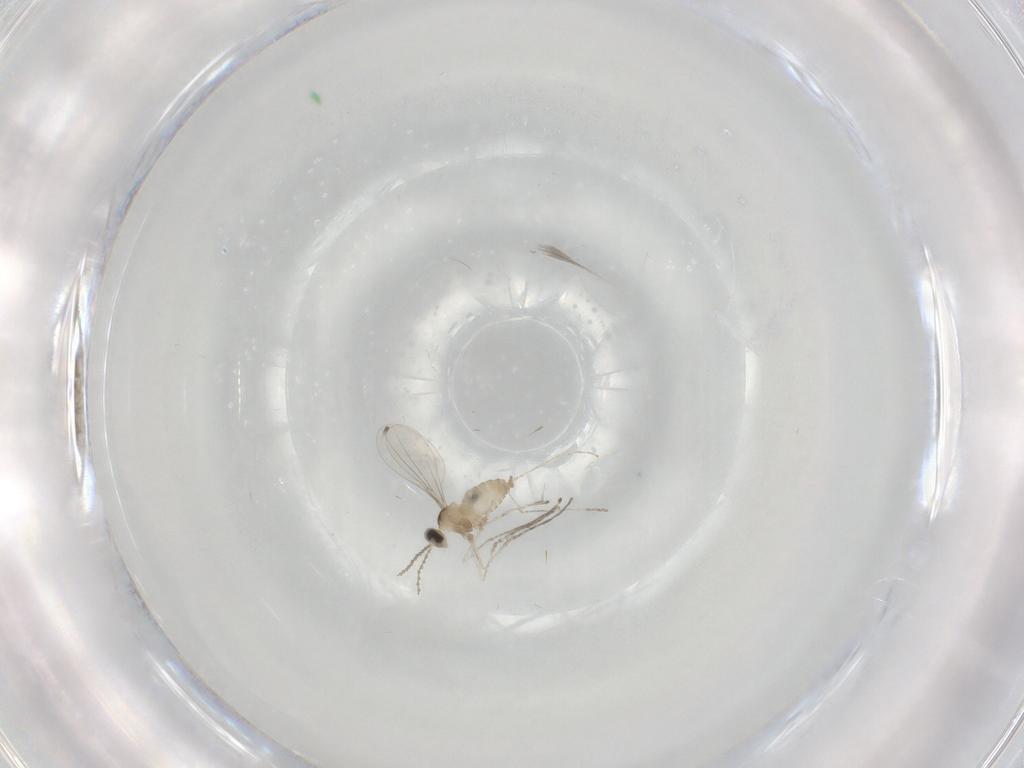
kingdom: Animalia
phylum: Arthropoda
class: Insecta
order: Diptera
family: Cecidomyiidae
